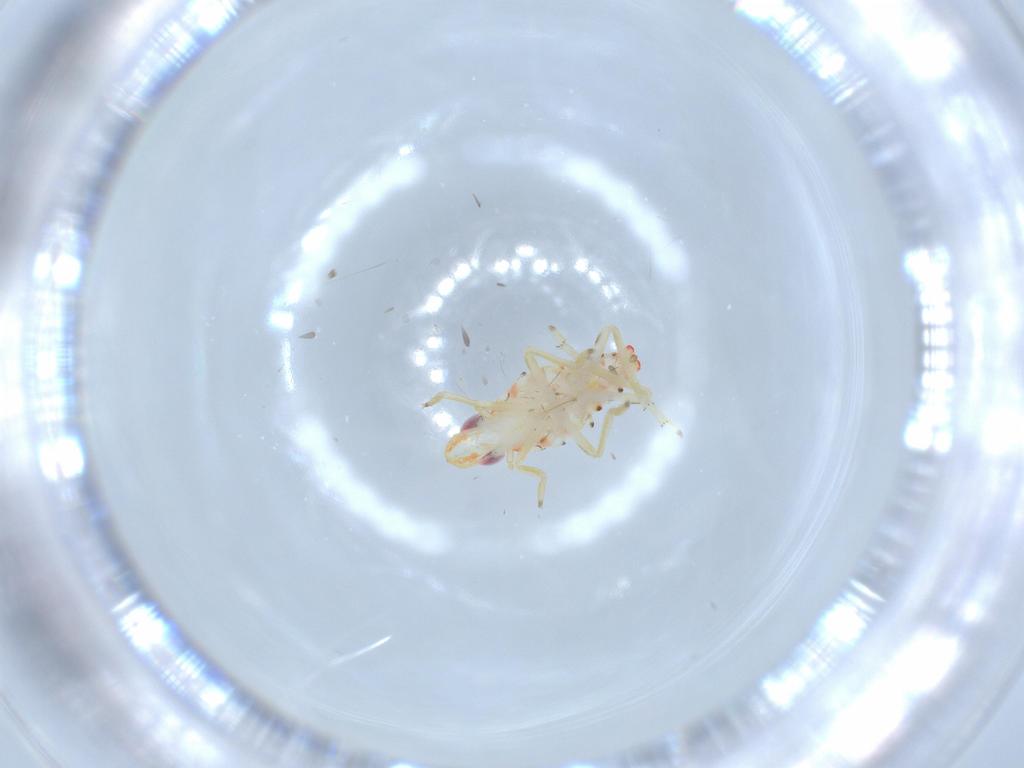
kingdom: Animalia
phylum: Arthropoda
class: Insecta
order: Hemiptera
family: Tropiduchidae
